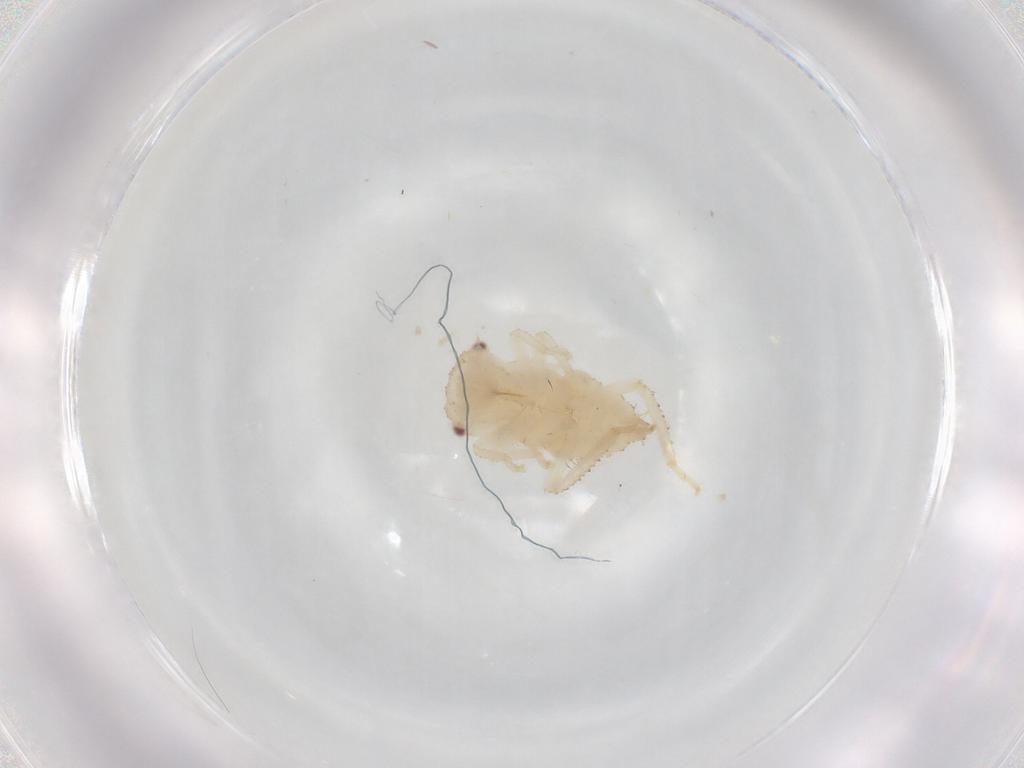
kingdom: Animalia
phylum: Arthropoda
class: Insecta
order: Hemiptera
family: Cicadellidae
